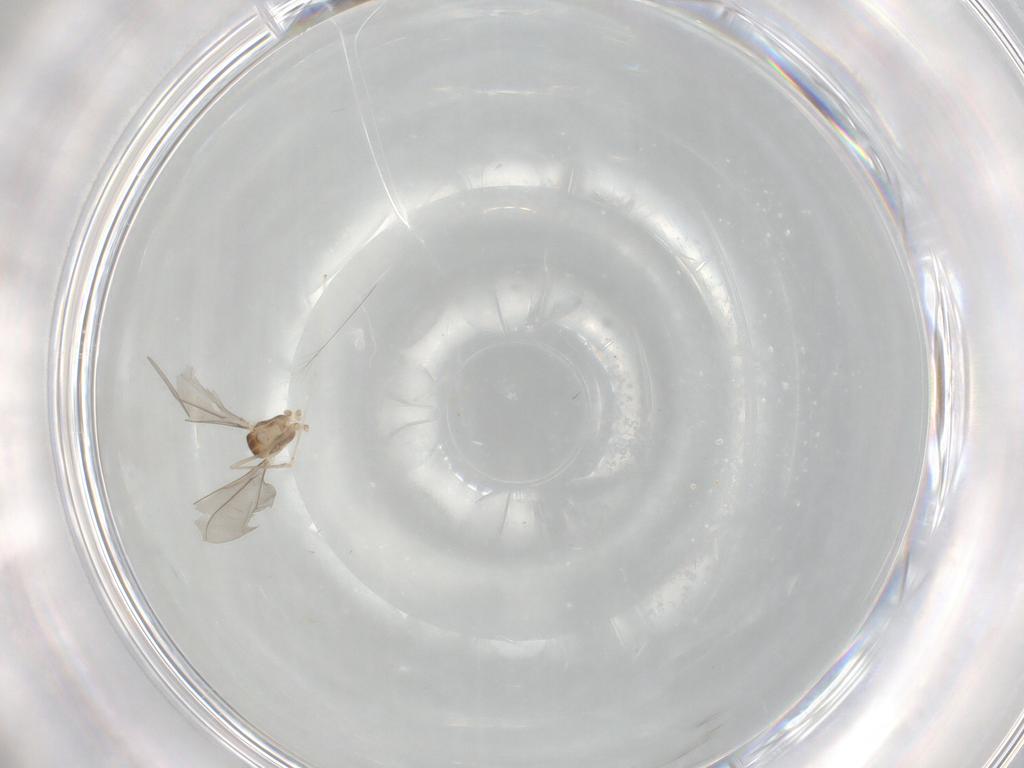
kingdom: Animalia
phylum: Arthropoda
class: Insecta
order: Diptera
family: Cecidomyiidae
